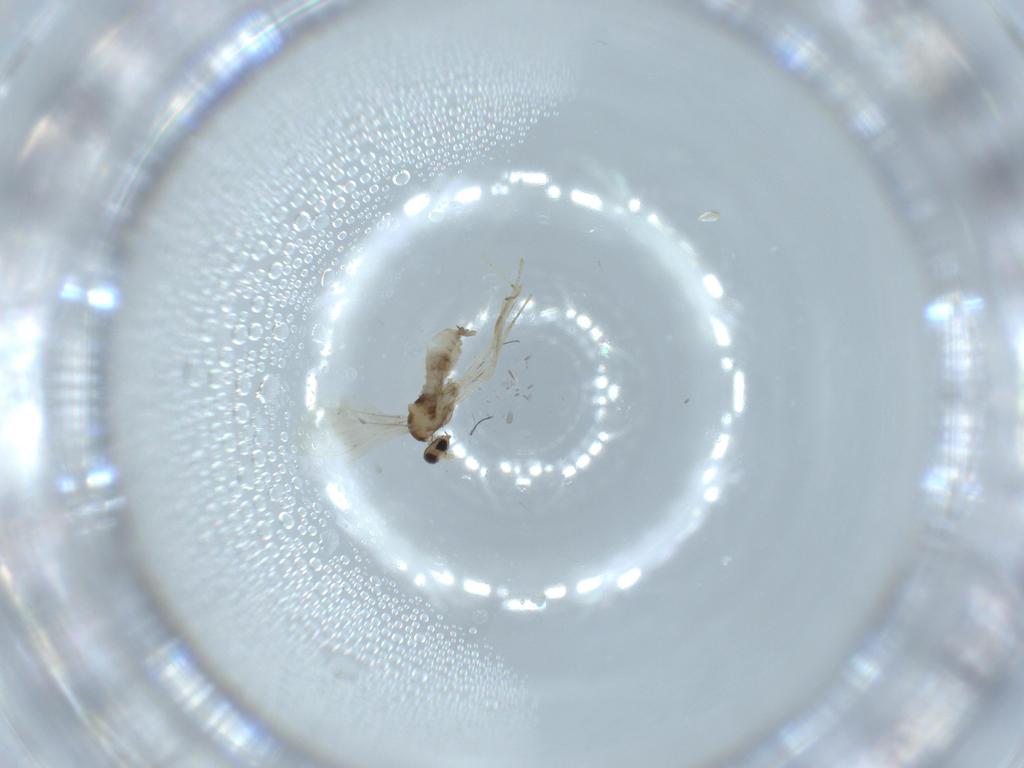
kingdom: Animalia
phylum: Arthropoda
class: Insecta
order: Diptera
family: Cecidomyiidae
